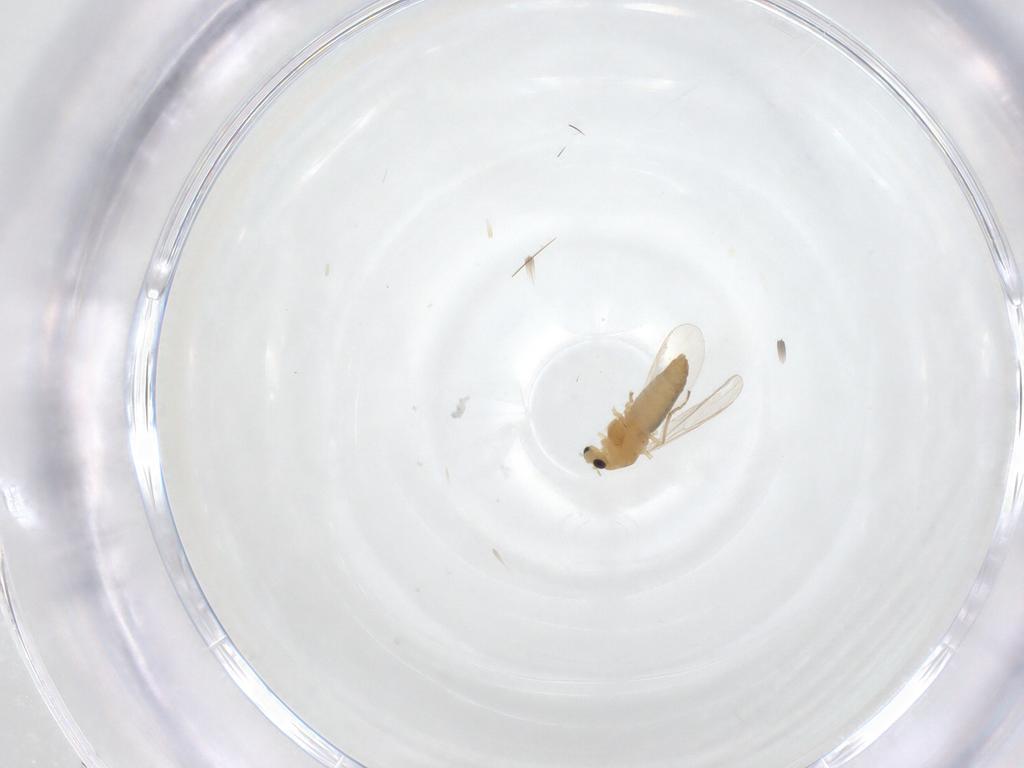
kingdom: Animalia
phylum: Arthropoda
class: Insecta
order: Diptera
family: Chironomidae
